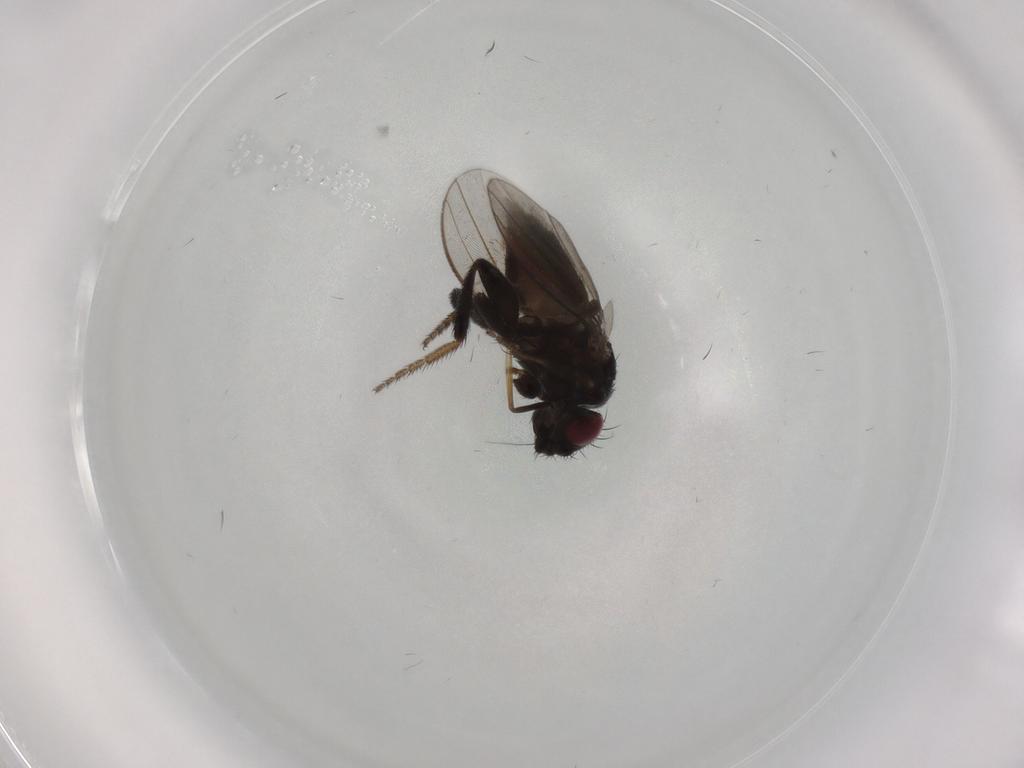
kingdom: Animalia
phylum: Arthropoda
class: Insecta
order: Diptera
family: Milichiidae
